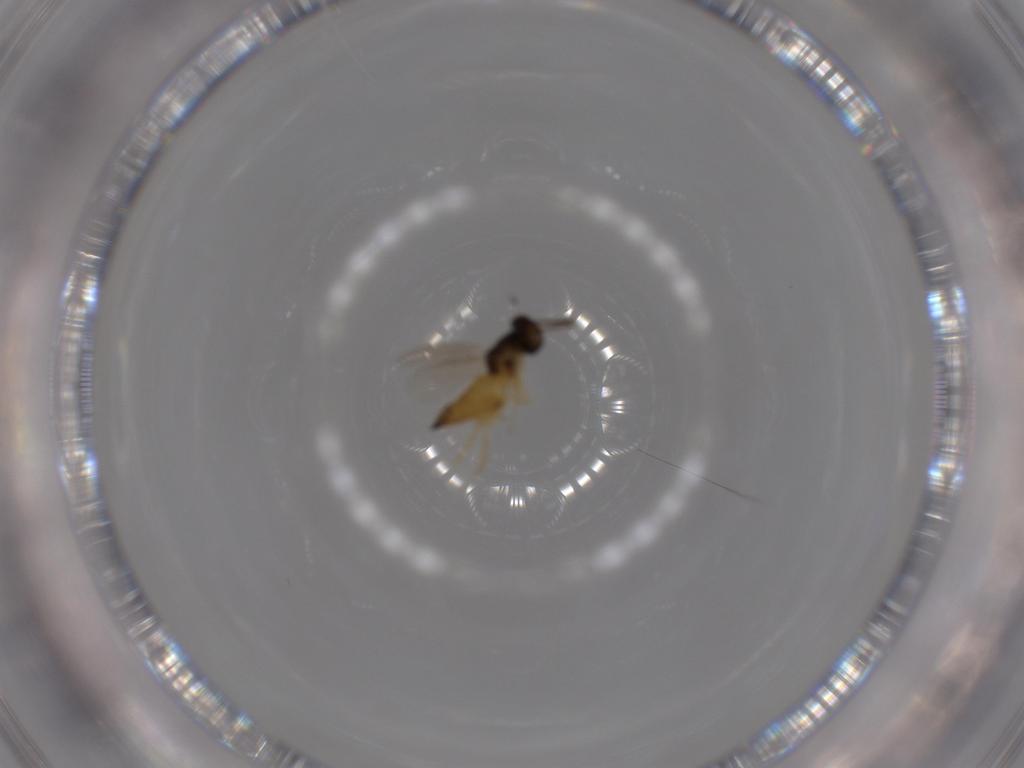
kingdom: Animalia
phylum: Arthropoda
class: Insecta
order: Hymenoptera
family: Eulophidae
